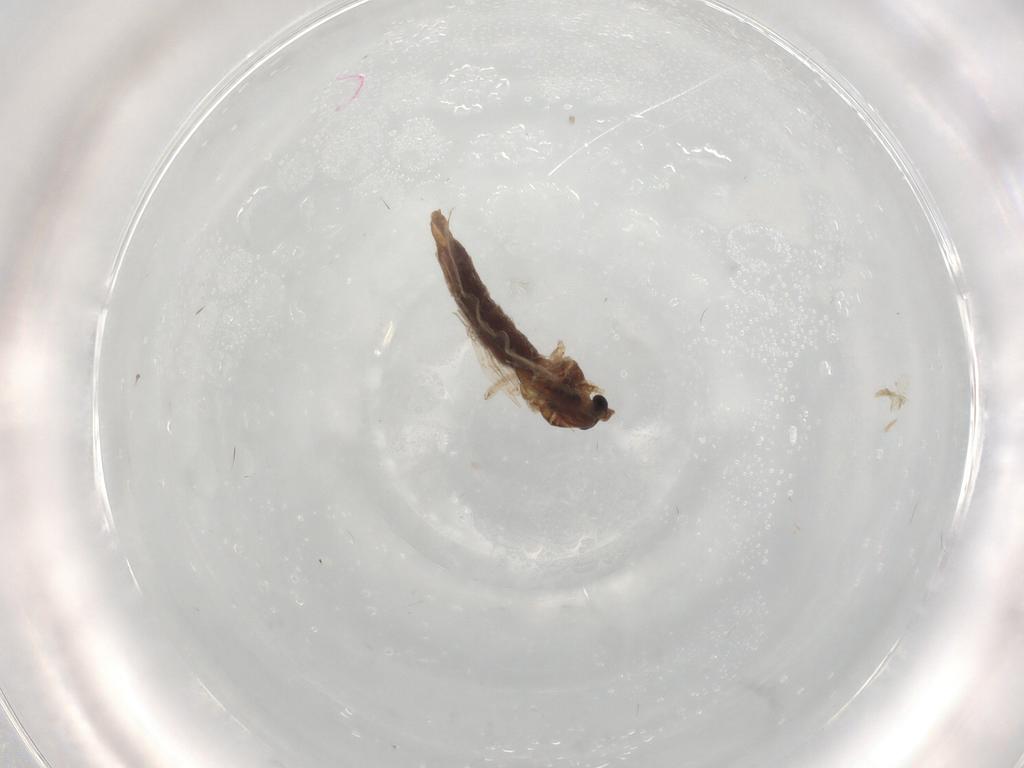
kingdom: Animalia
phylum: Arthropoda
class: Insecta
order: Diptera
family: Chironomidae
